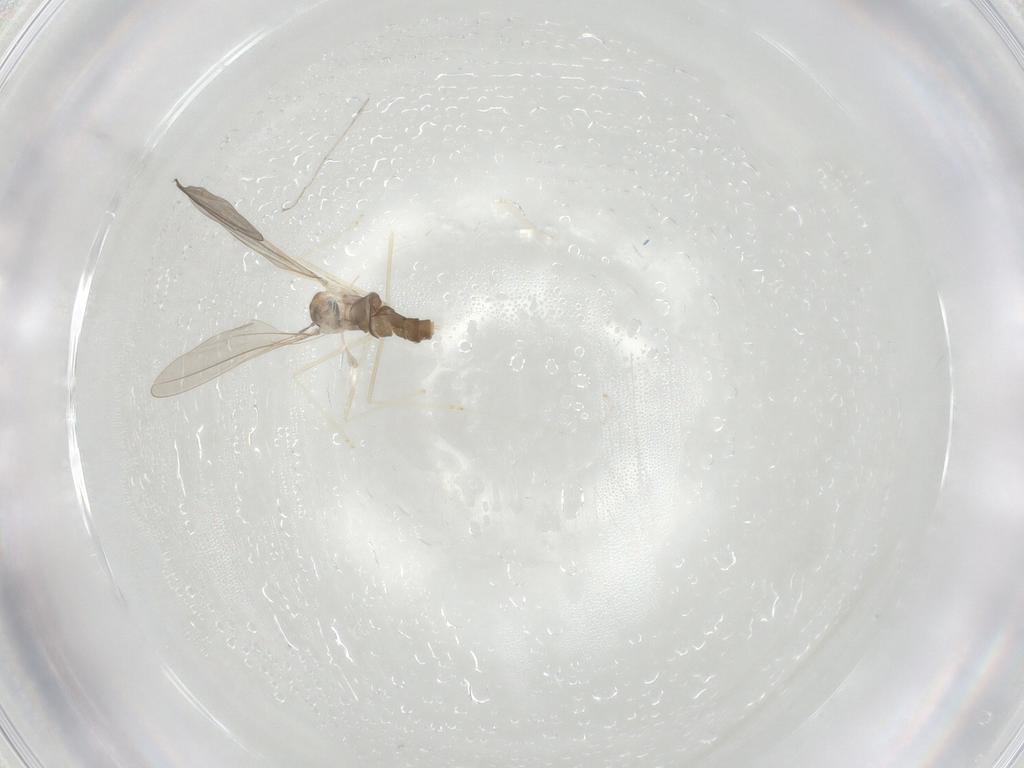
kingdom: Animalia
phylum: Arthropoda
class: Insecta
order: Diptera
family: Cecidomyiidae
